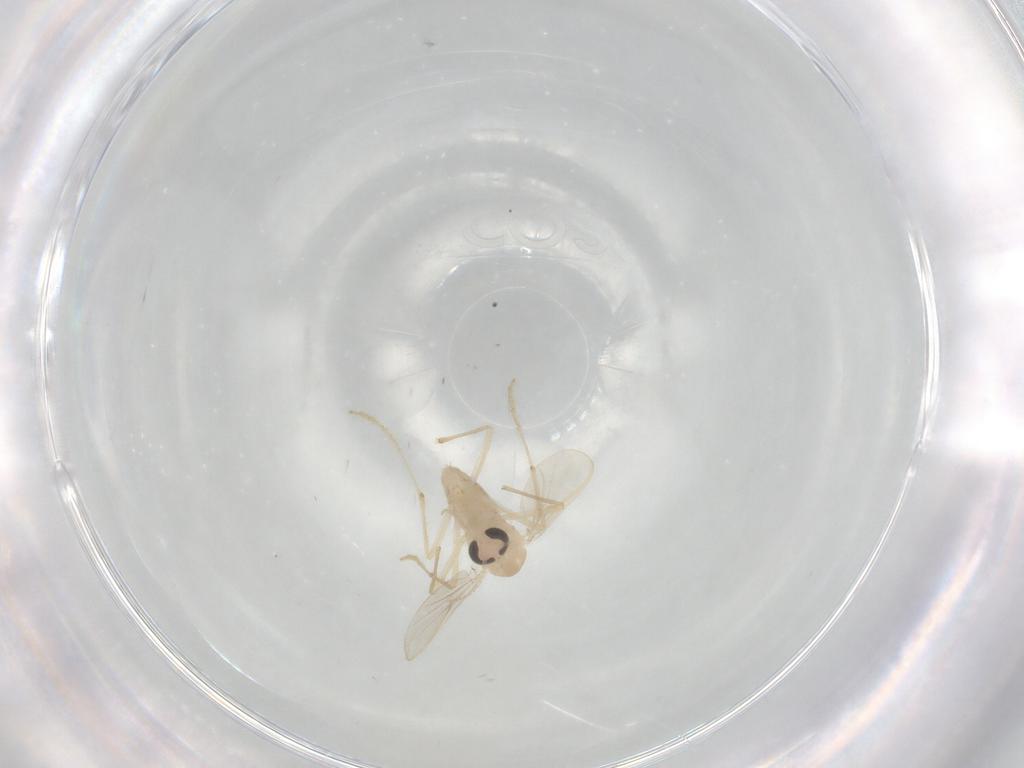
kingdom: Animalia
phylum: Arthropoda
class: Insecta
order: Diptera
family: Chironomidae
